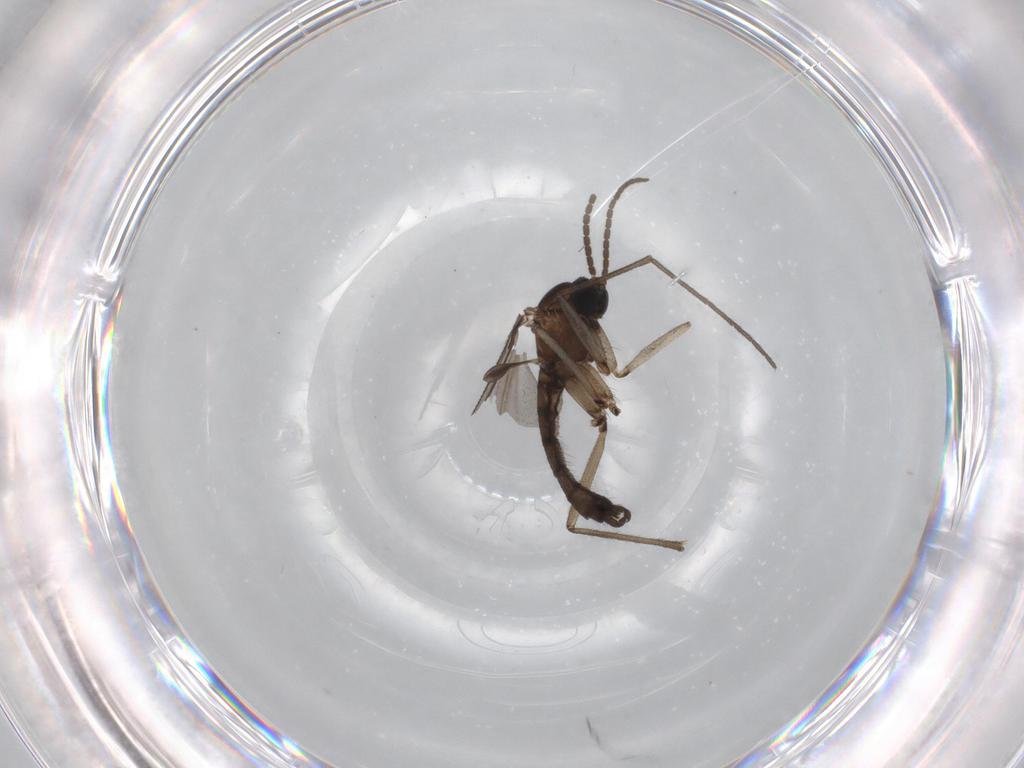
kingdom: Animalia
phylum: Arthropoda
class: Insecta
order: Diptera
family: Sciaridae
